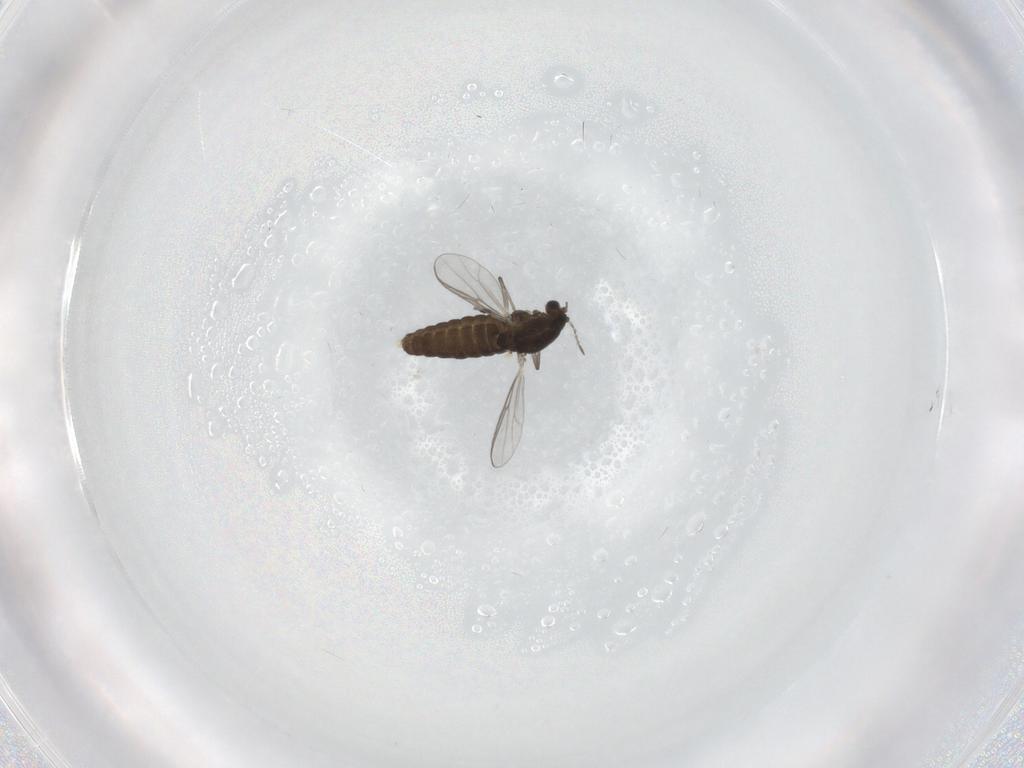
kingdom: Animalia
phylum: Arthropoda
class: Insecta
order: Diptera
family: Chironomidae
